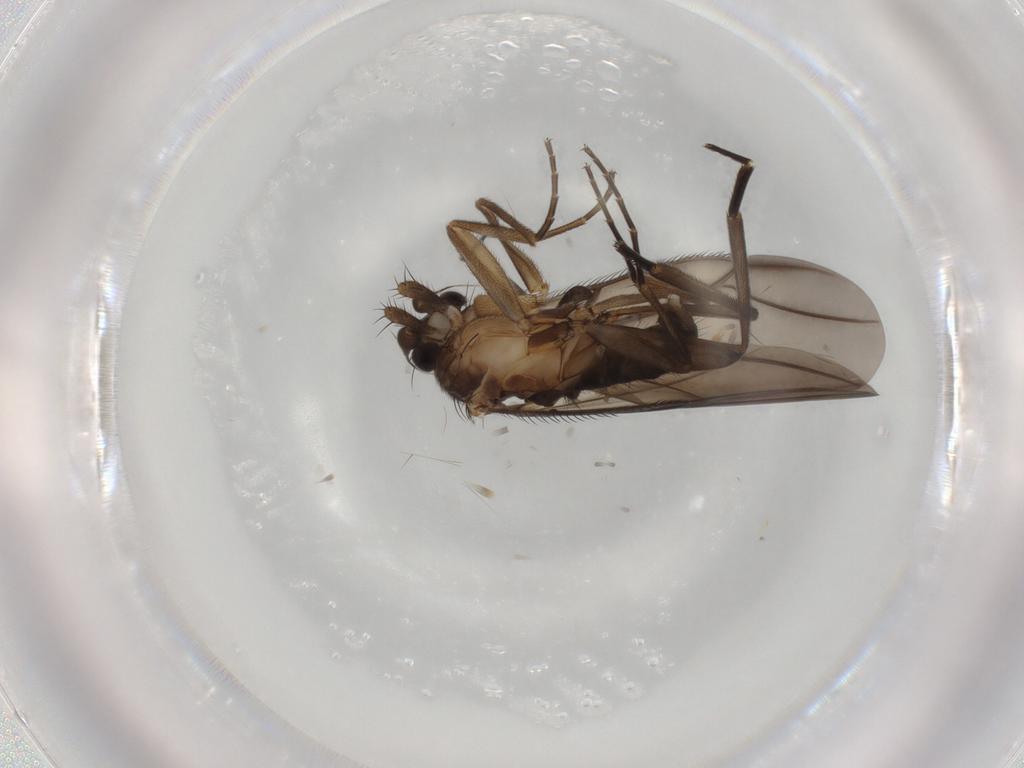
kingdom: Animalia
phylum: Arthropoda
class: Insecta
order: Diptera
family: Phoridae
